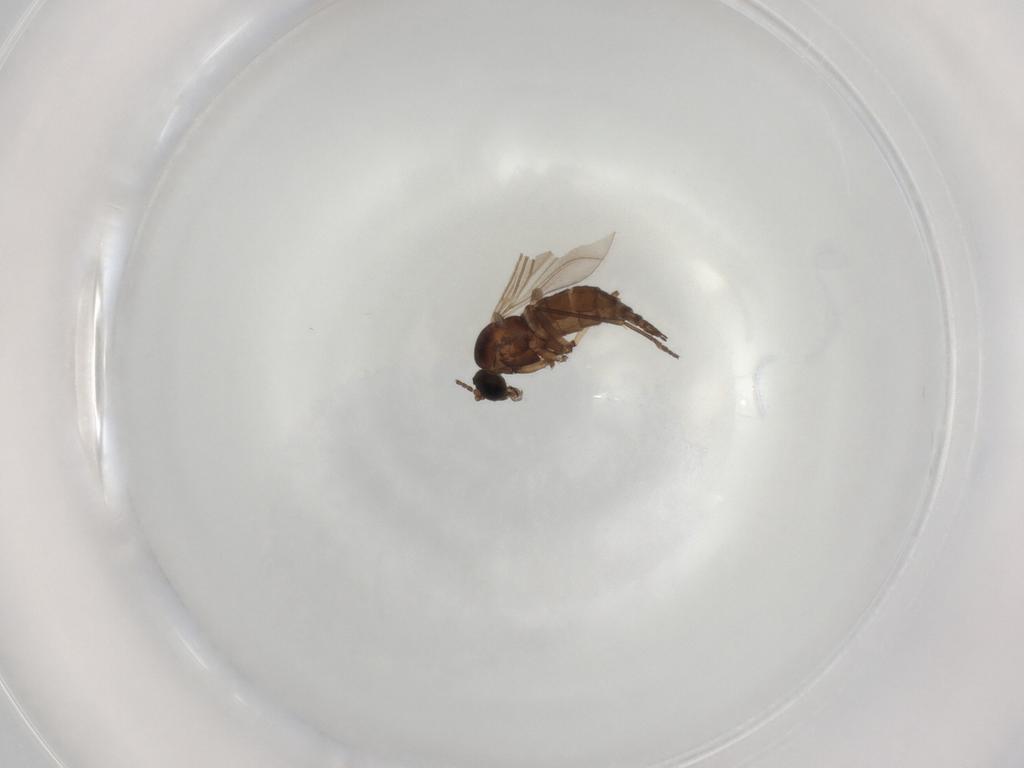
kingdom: Animalia
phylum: Arthropoda
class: Insecta
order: Diptera
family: Sciaridae
